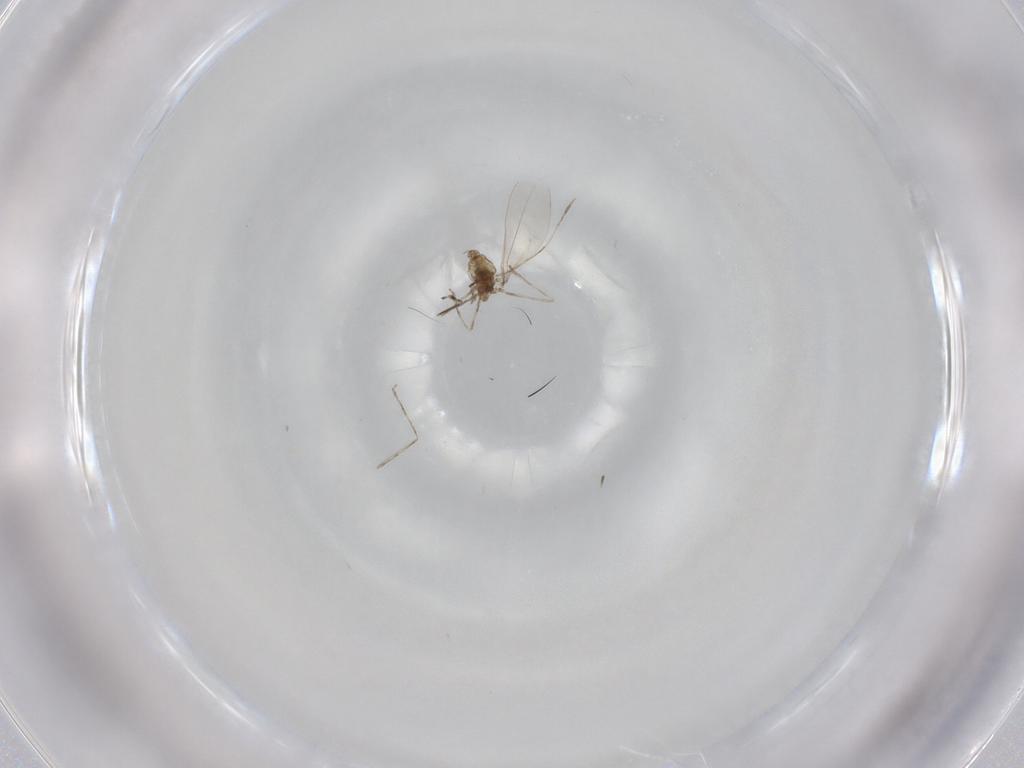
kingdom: Animalia
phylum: Arthropoda
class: Insecta
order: Diptera
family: Cecidomyiidae
